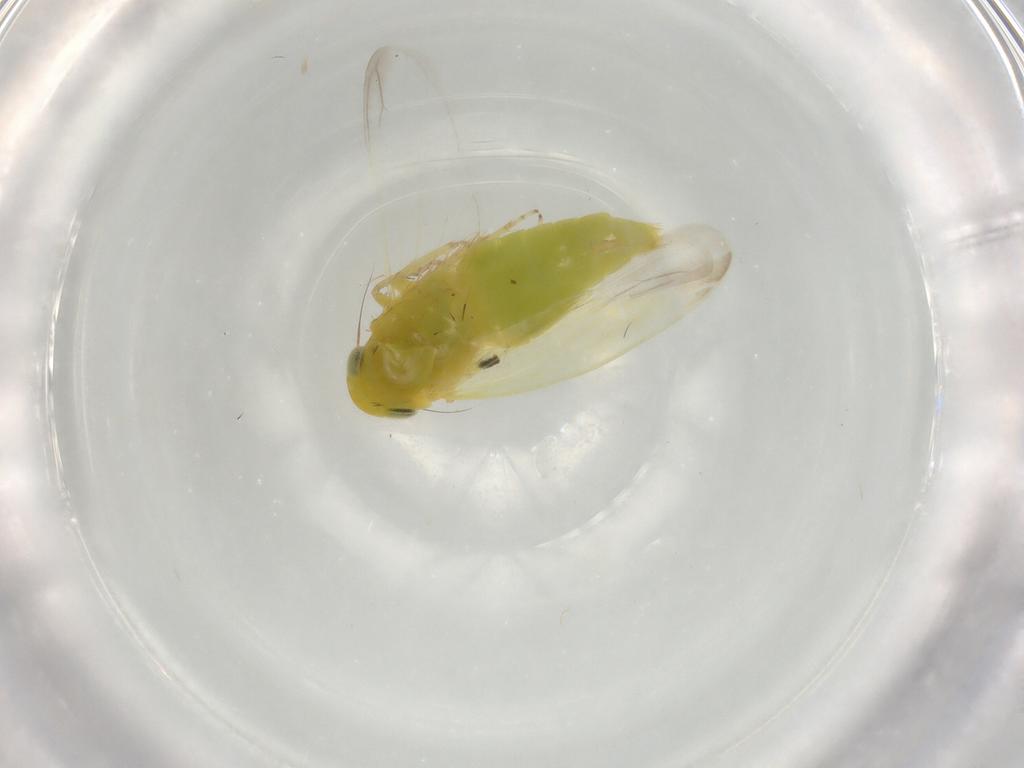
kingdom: Animalia
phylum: Arthropoda
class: Insecta
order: Hemiptera
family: Cicadellidae
